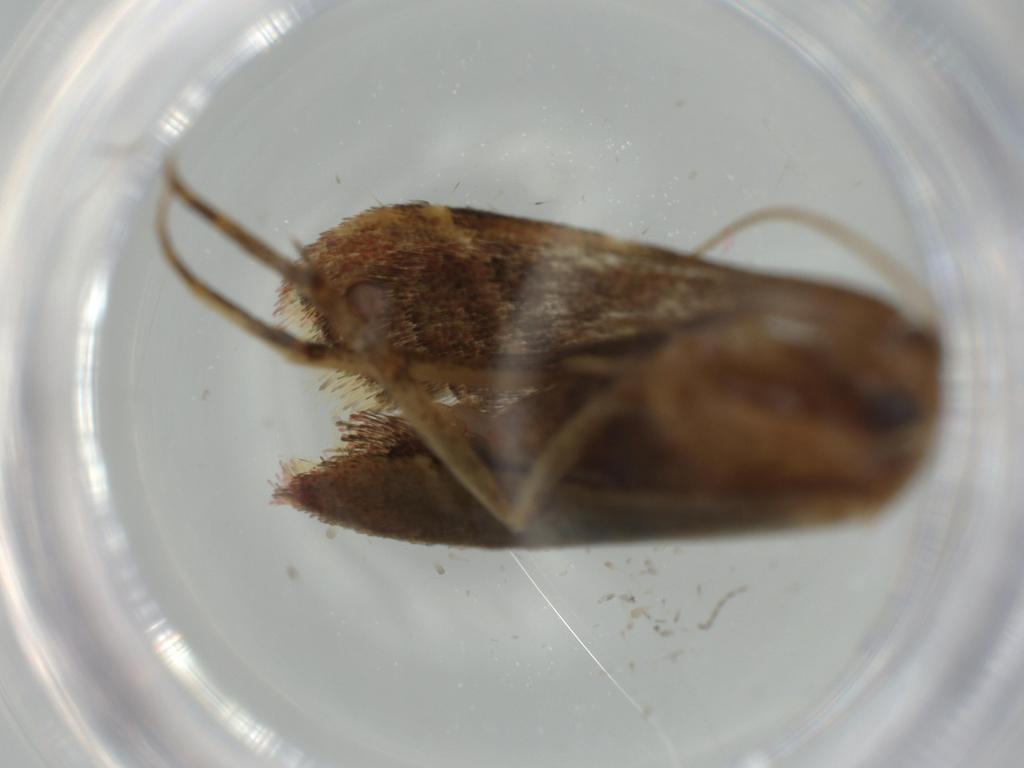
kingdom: Animalia
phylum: Arthropoda
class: Insecta
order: Lepidoptera
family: Tineidae
